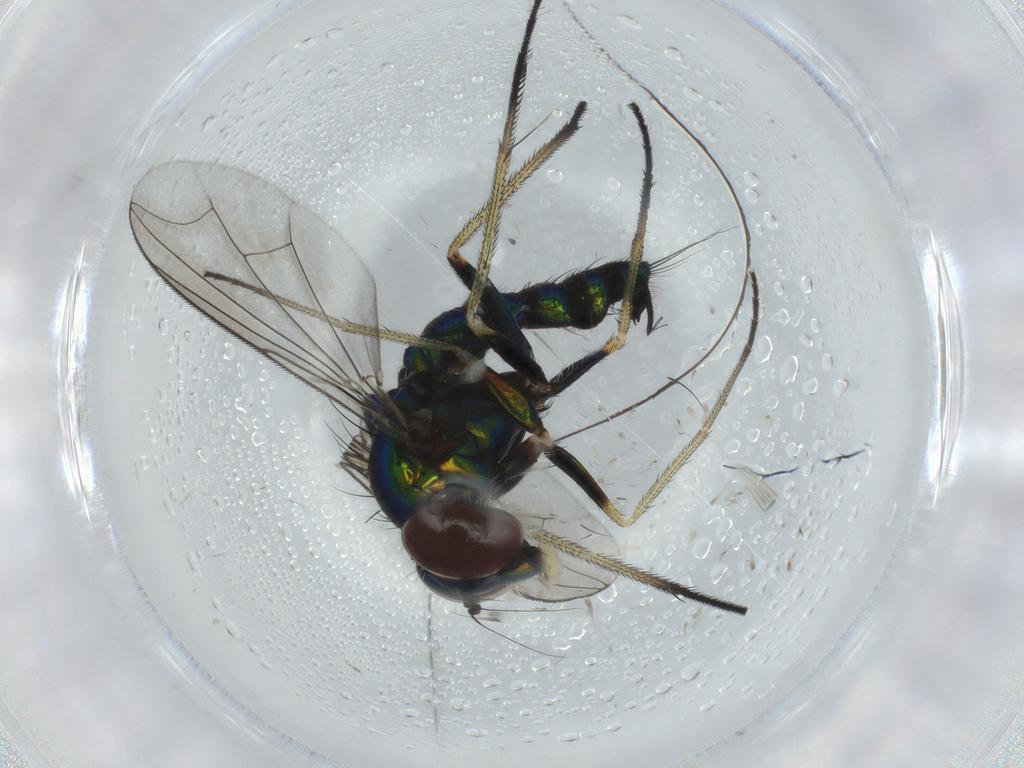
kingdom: Animalia
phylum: Arthropoda
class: Insecta
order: Diptera
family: Dolichopodidae
